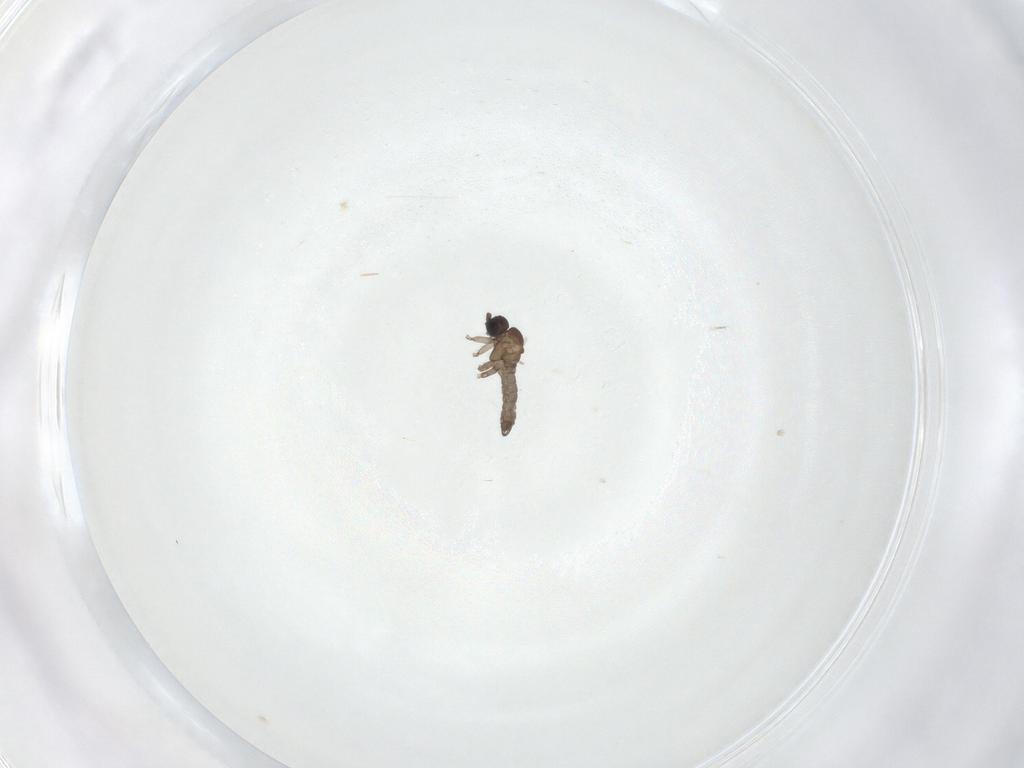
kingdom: Animalia
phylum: Arthropoda
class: Insecta
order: Diptera
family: Sciaridae
